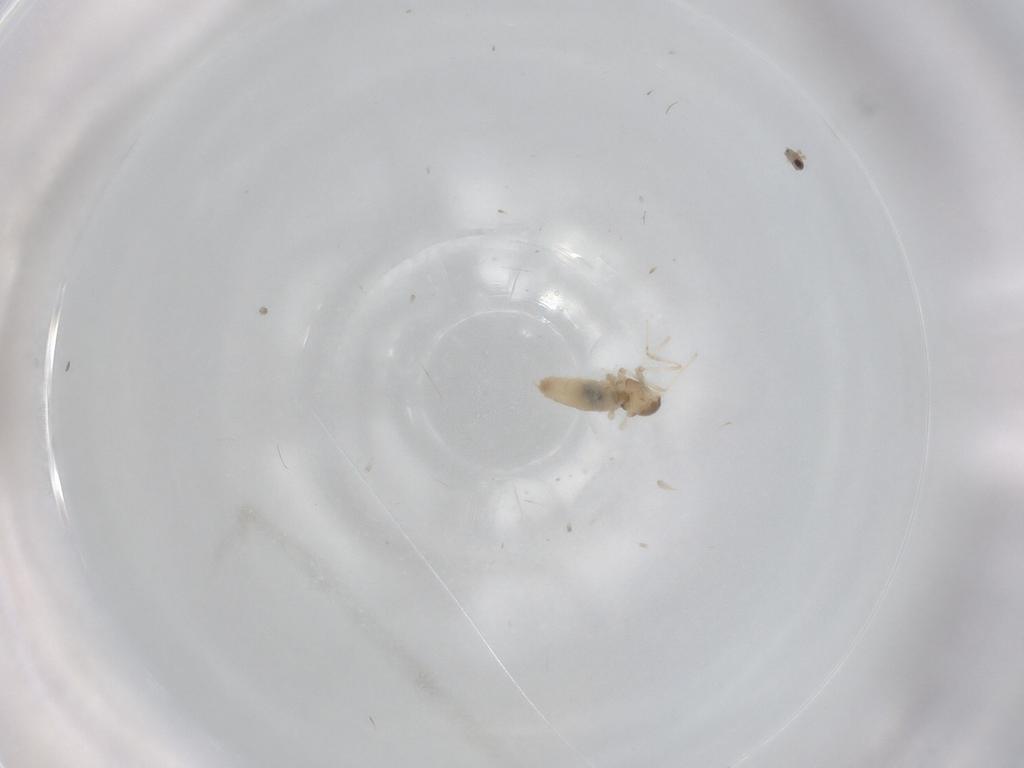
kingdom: Animalia
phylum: Arthropoda
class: Insecta
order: Diptera
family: Cecidomyiidae
